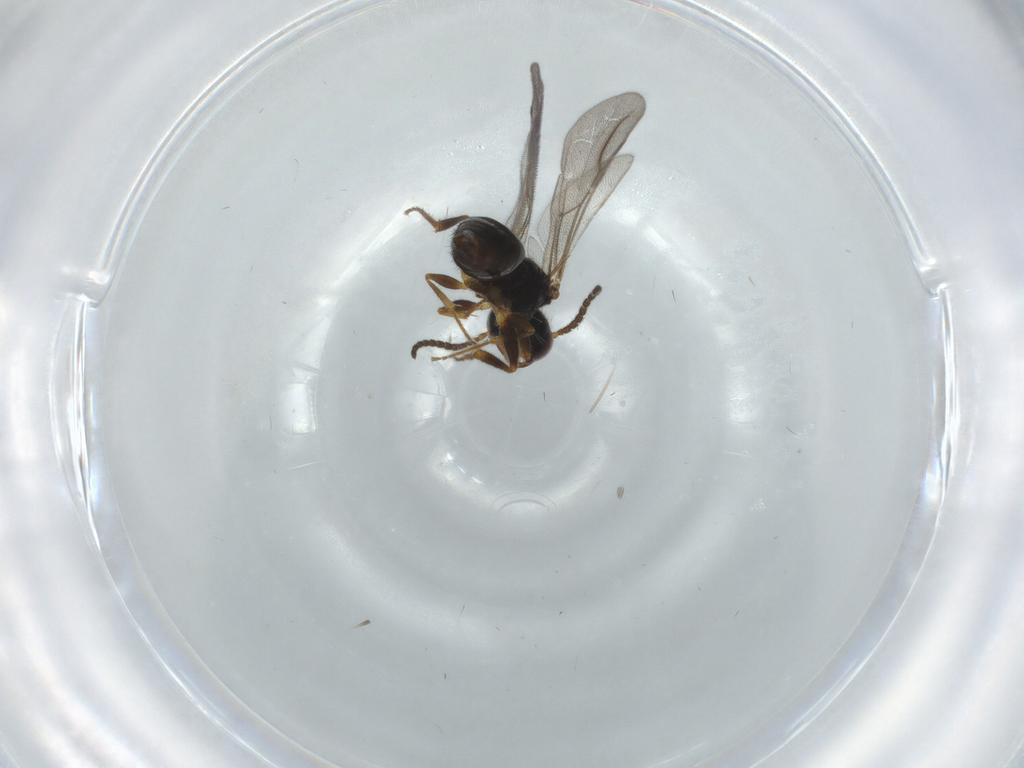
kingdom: Animalia
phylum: Arthropoda
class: Insecta
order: Hymenoptera
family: Bethylidae
